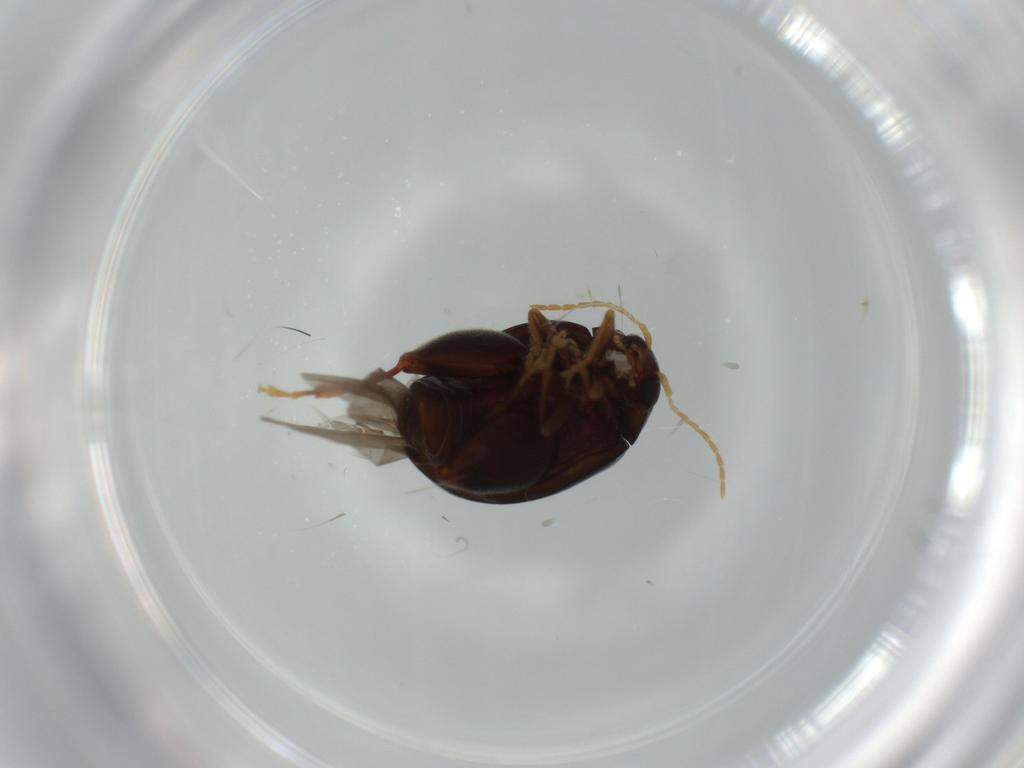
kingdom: Animalia
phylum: Arthropoda
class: Insecta
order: Coleoptera
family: Chrysomelidae
